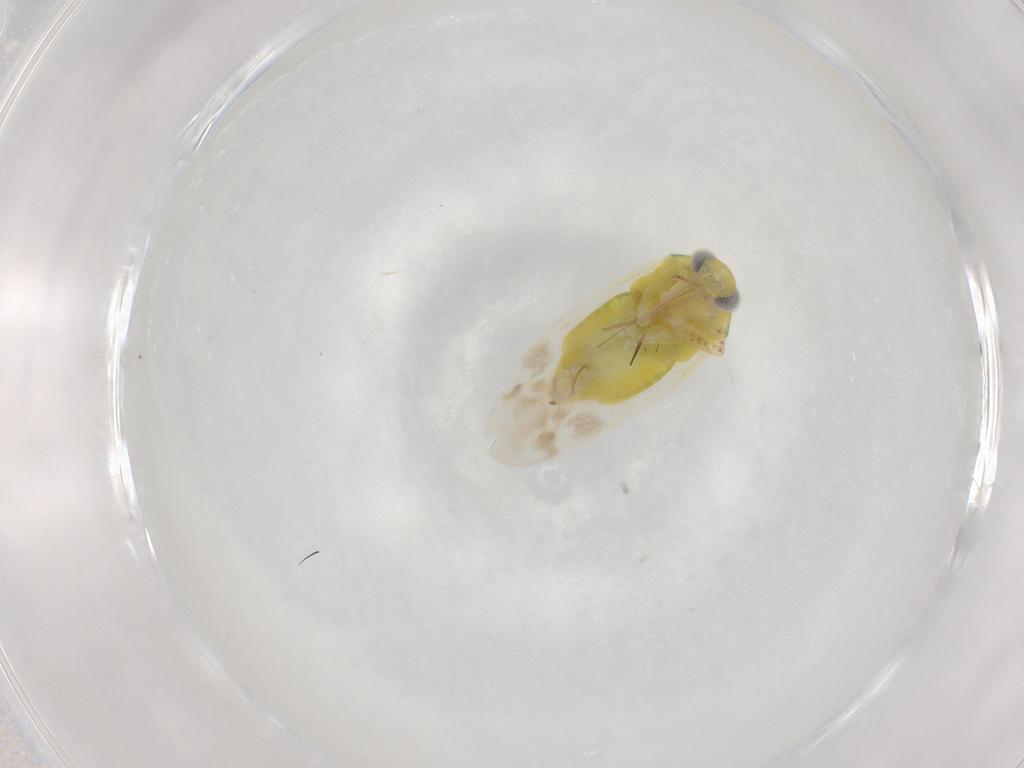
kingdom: Animalia
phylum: Arthropoda
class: Insecta
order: Hemiptera
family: Miridae
